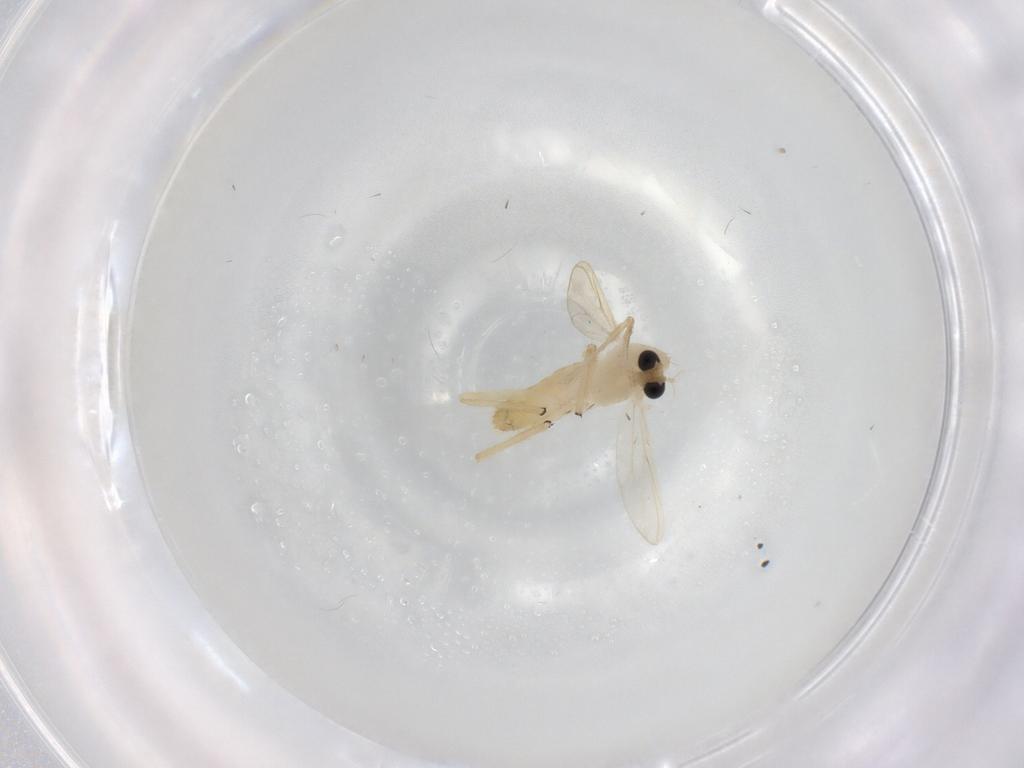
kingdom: Animalia
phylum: Arthropoda
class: Insecta
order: Diptera
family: Chironomidae
